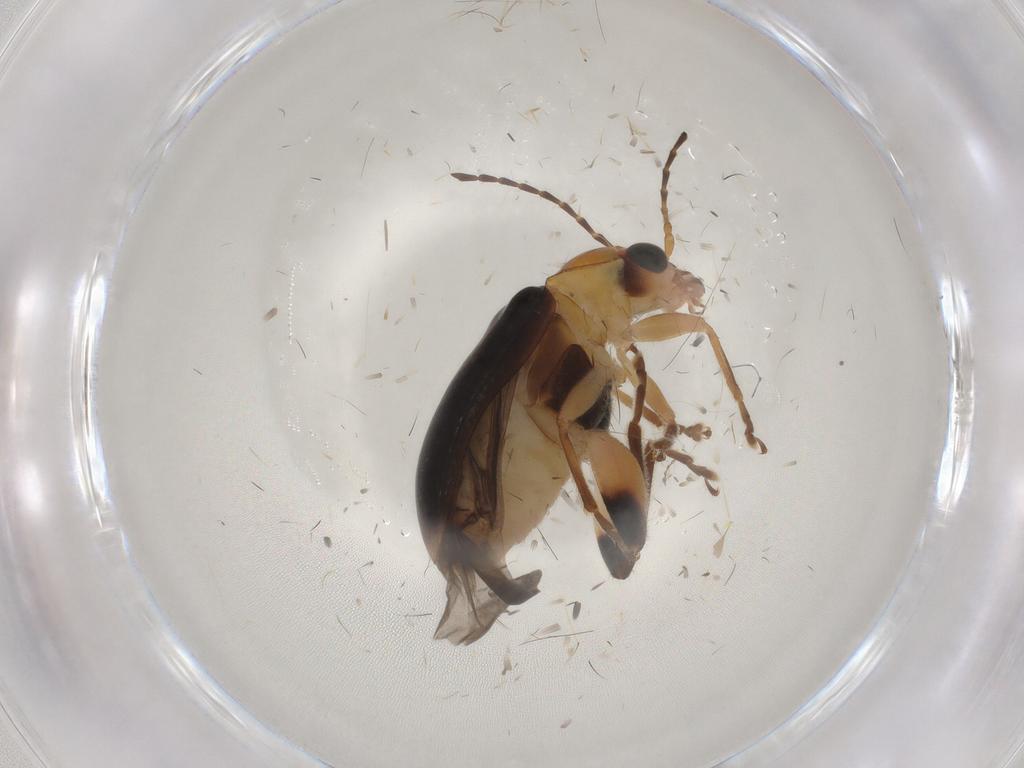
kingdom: Animalia
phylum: Arthropoda
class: Insecta
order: Coleoptera
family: Chrysomelidae
